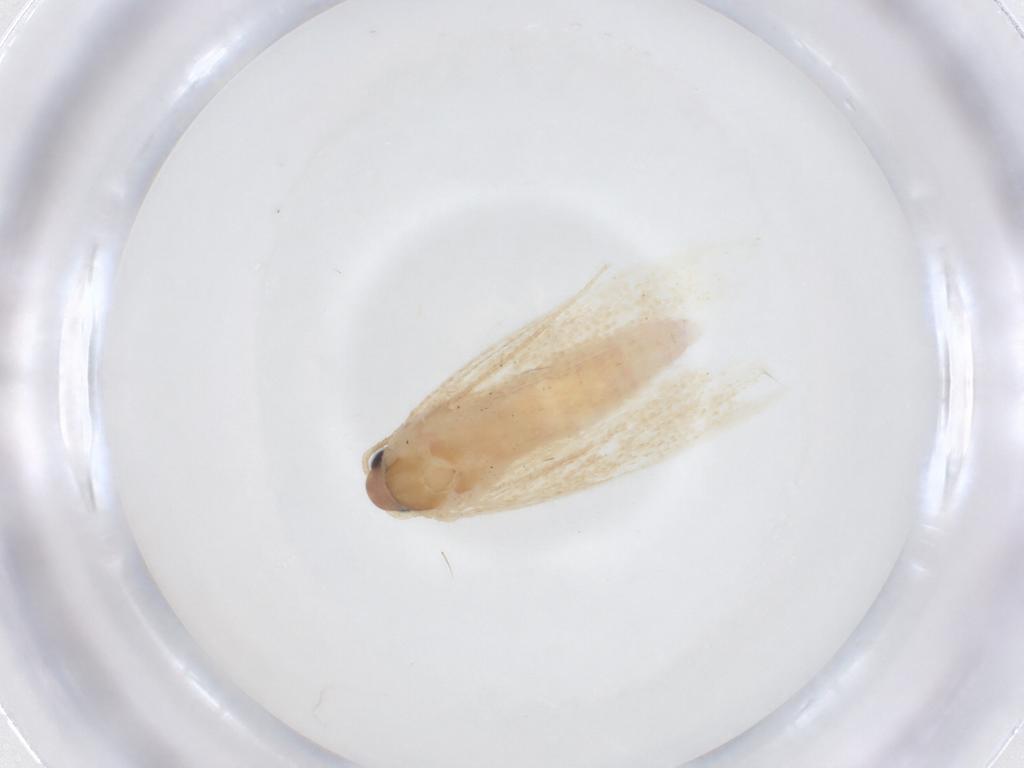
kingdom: Animalia
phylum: Arthropoda
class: Insecta
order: Lepidoptera
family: Autostichidae
